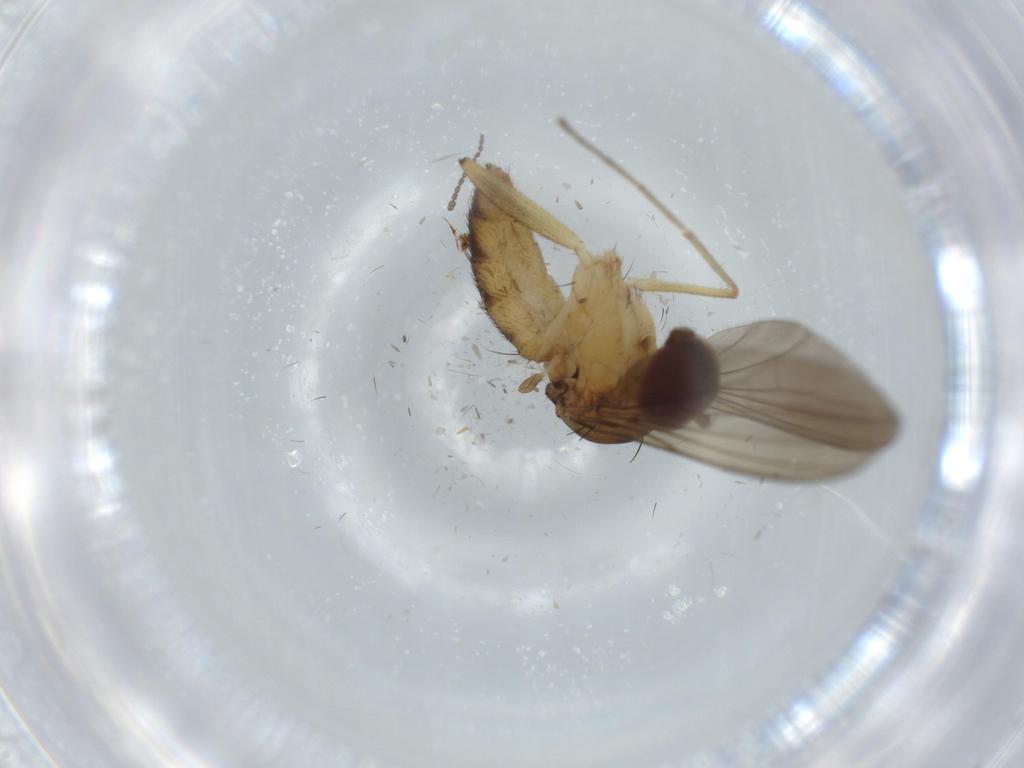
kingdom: Animalia
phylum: Arthropoda
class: Insecta
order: Diptera
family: Dolichopodidae
